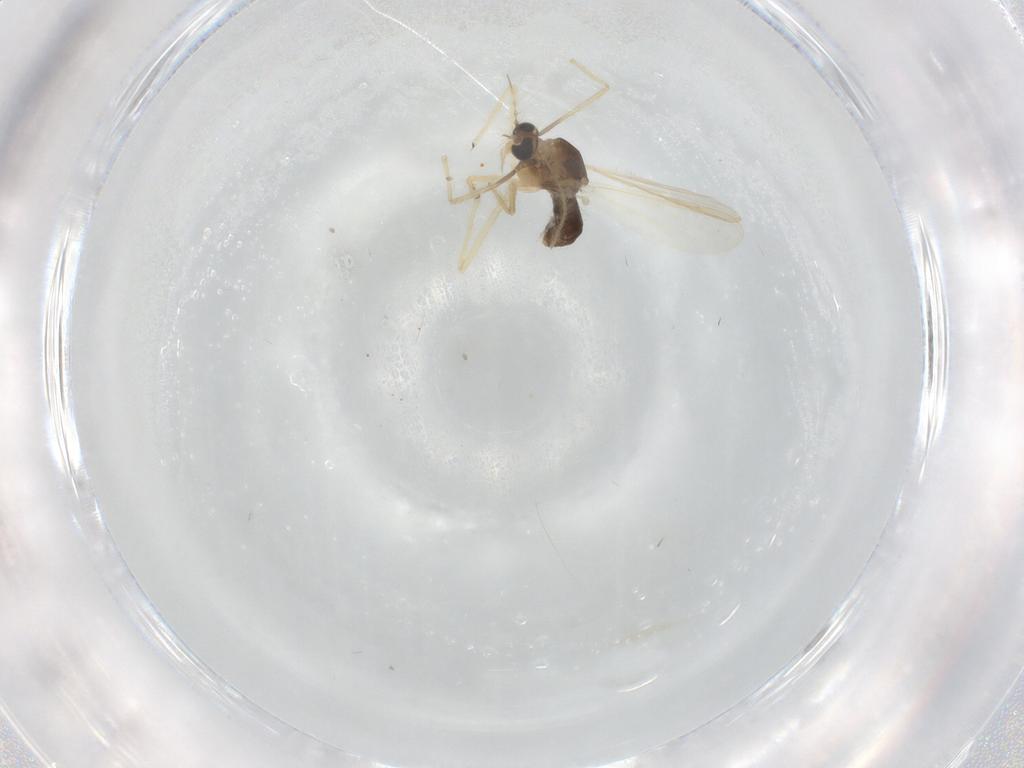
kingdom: Animalia
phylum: Arthropoda
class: Insecta
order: Diptera
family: Chironomidae
